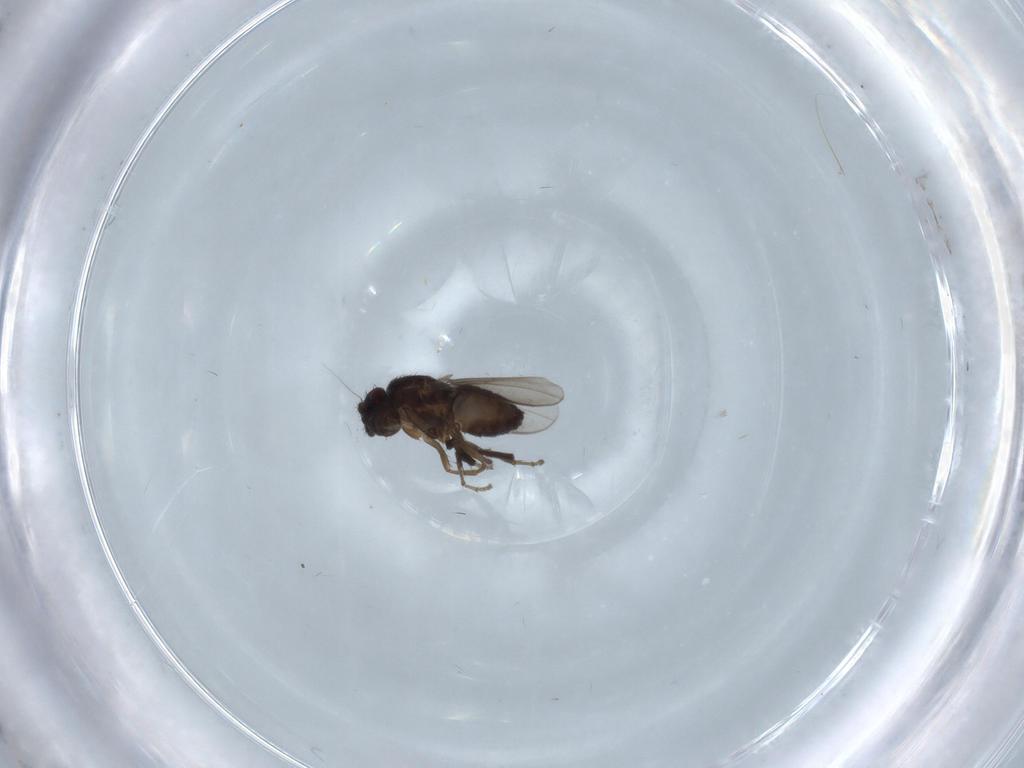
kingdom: Animalia
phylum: Arthropoda
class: Insecta
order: Diptera
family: Sphaeroceridae
